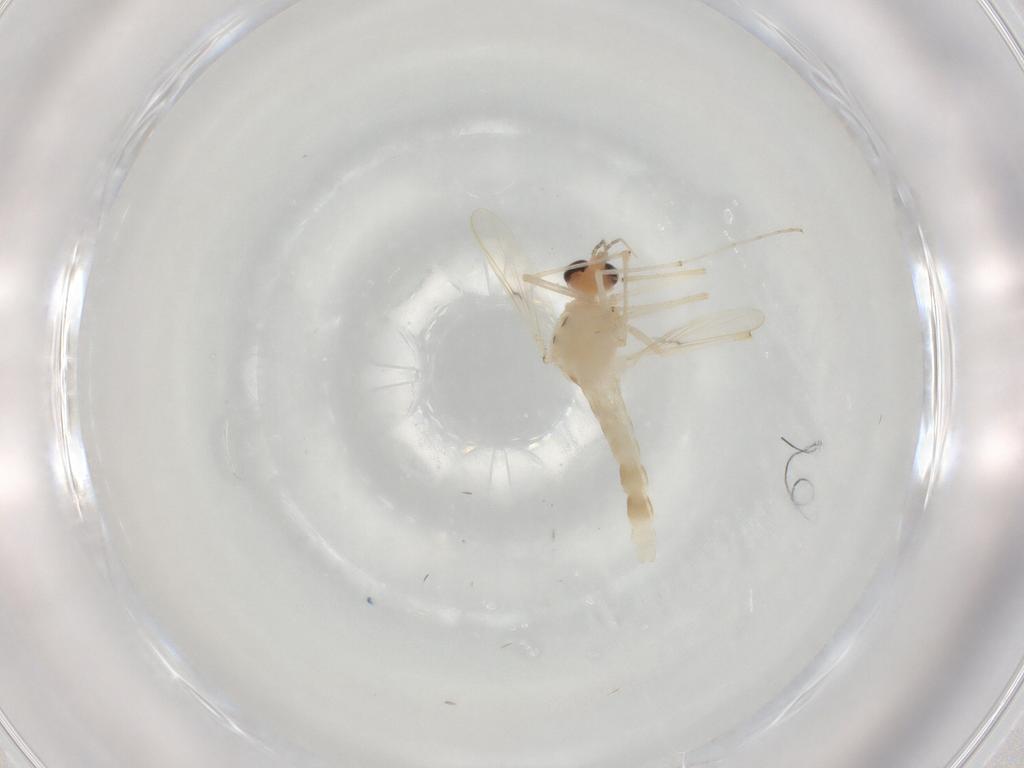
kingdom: Animalia
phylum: Arthropoda
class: Insecta
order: Diptera
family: Chironomidae
